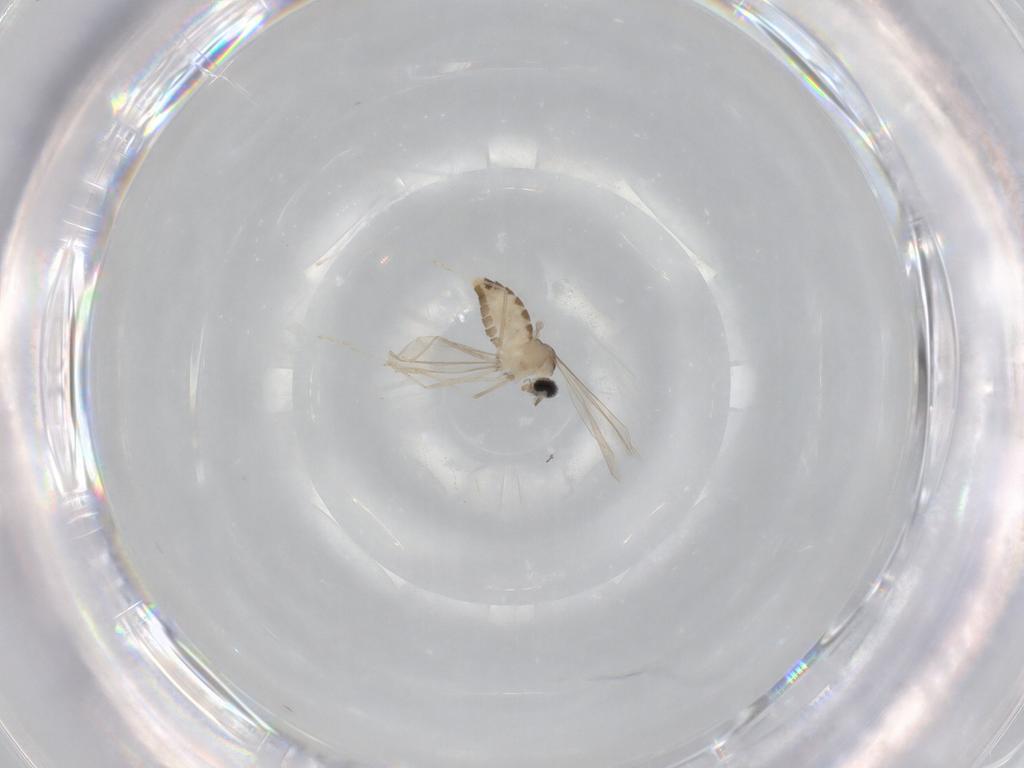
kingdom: Animalia
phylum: Arthropoda
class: Insecta
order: Diptera
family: Cecidomyiidae
